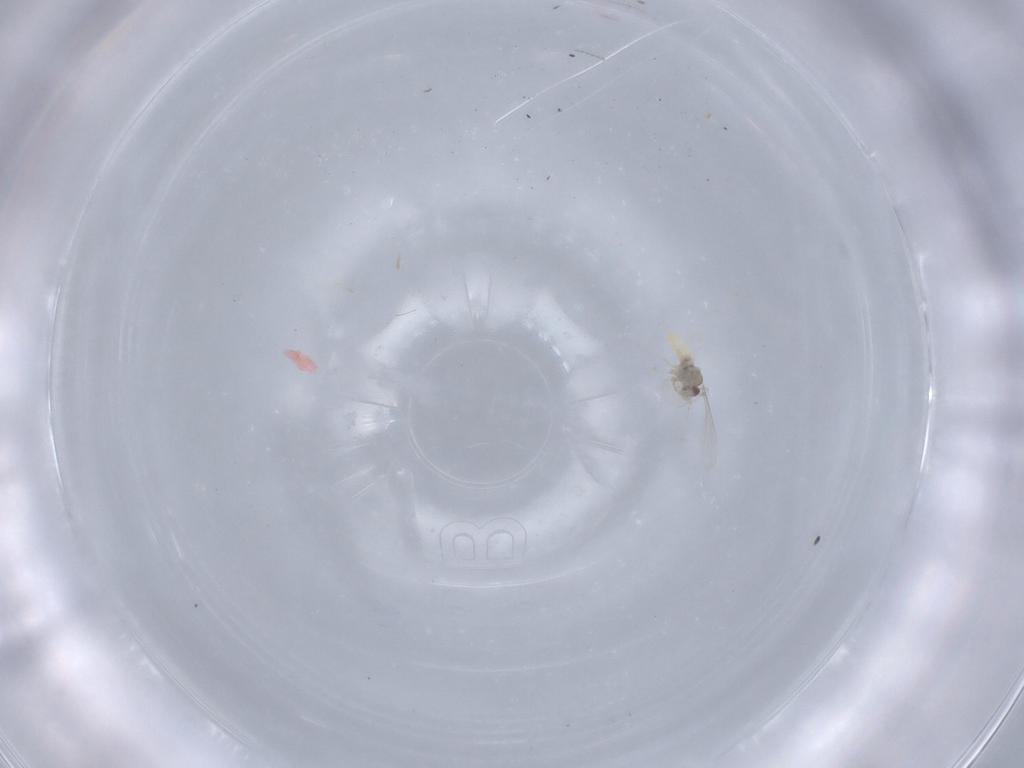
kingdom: Animalia
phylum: Arthropoda
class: Insecta
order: Diptera
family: Cecidomyiidae
